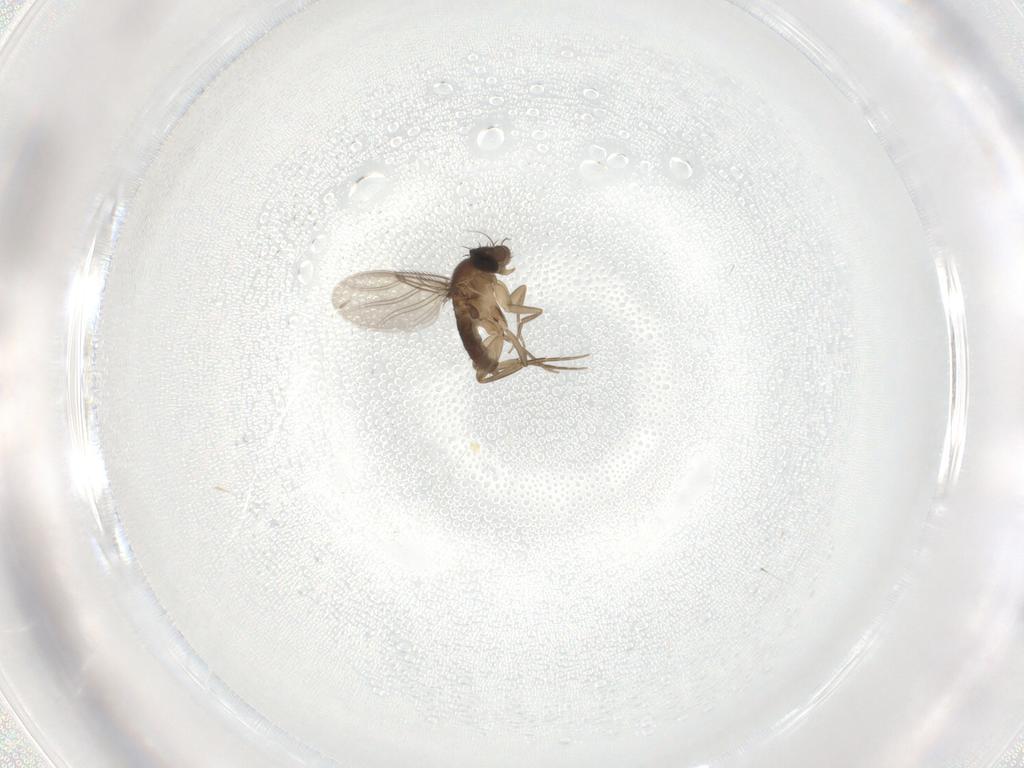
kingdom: Animalia
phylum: Arthropoda
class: Insecta
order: Diptera
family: Phoridae
